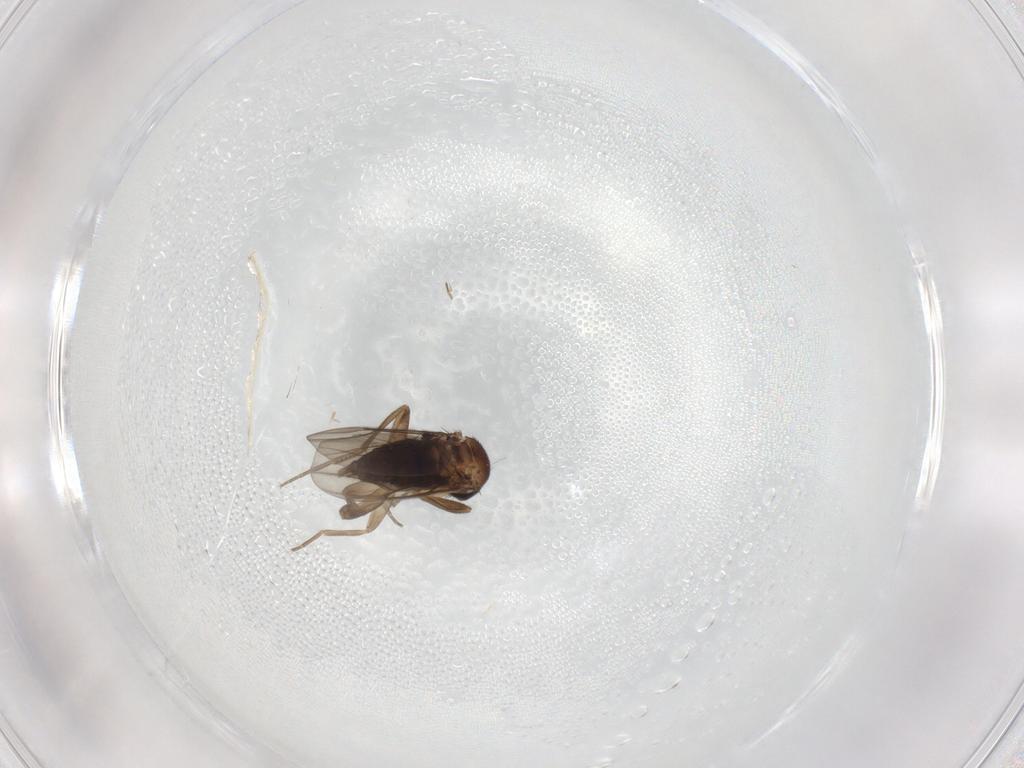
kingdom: Animalia
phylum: Arthropoda
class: Insecta
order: Diptera
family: Phoridae
